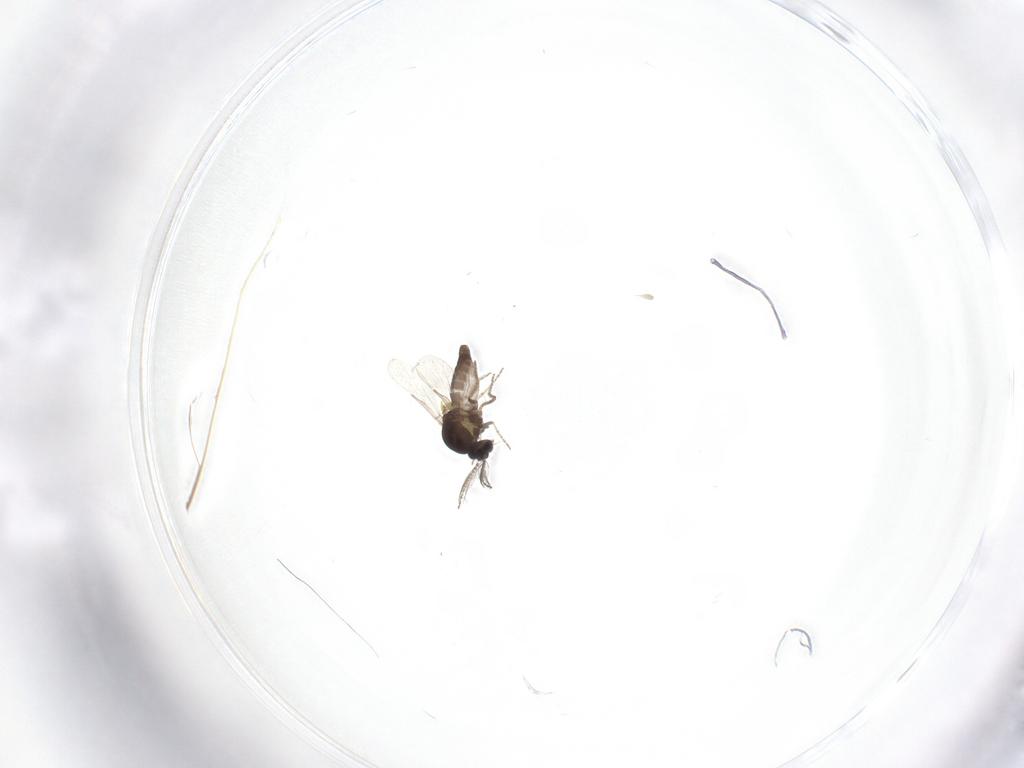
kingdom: Animalia
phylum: Arthropoda
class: Insecta
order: Diptera
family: Ceratopogonidae
